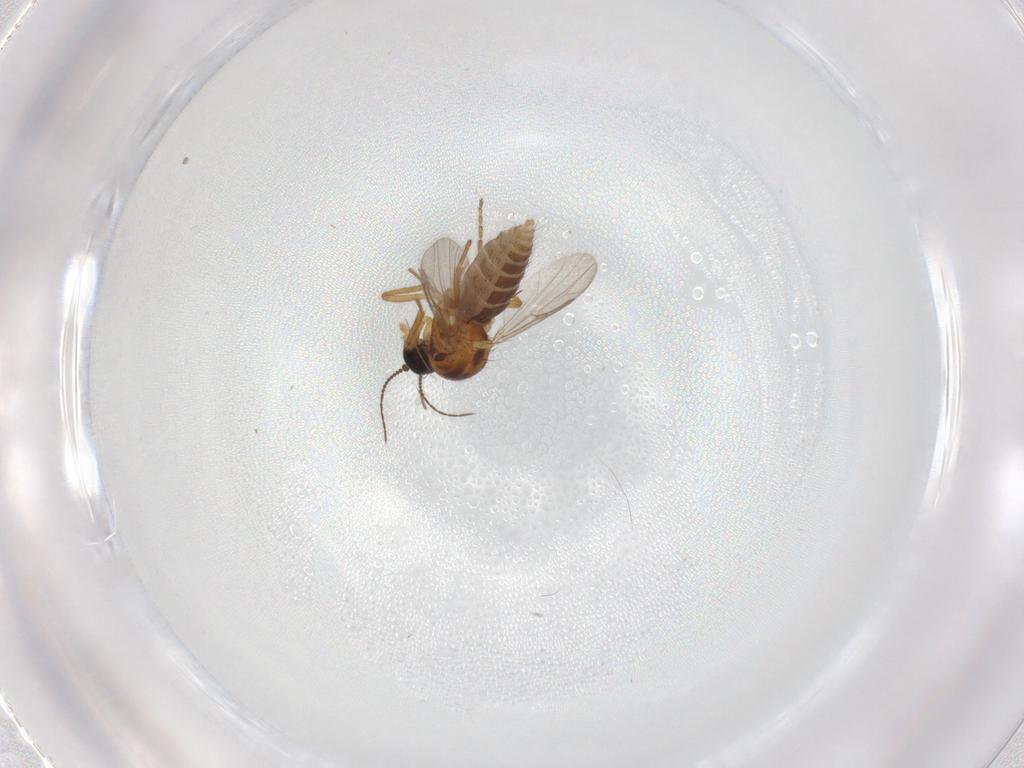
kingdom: Animalia
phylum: Arthropoda
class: Insecta
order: Diptera
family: Ceratopogonidae
